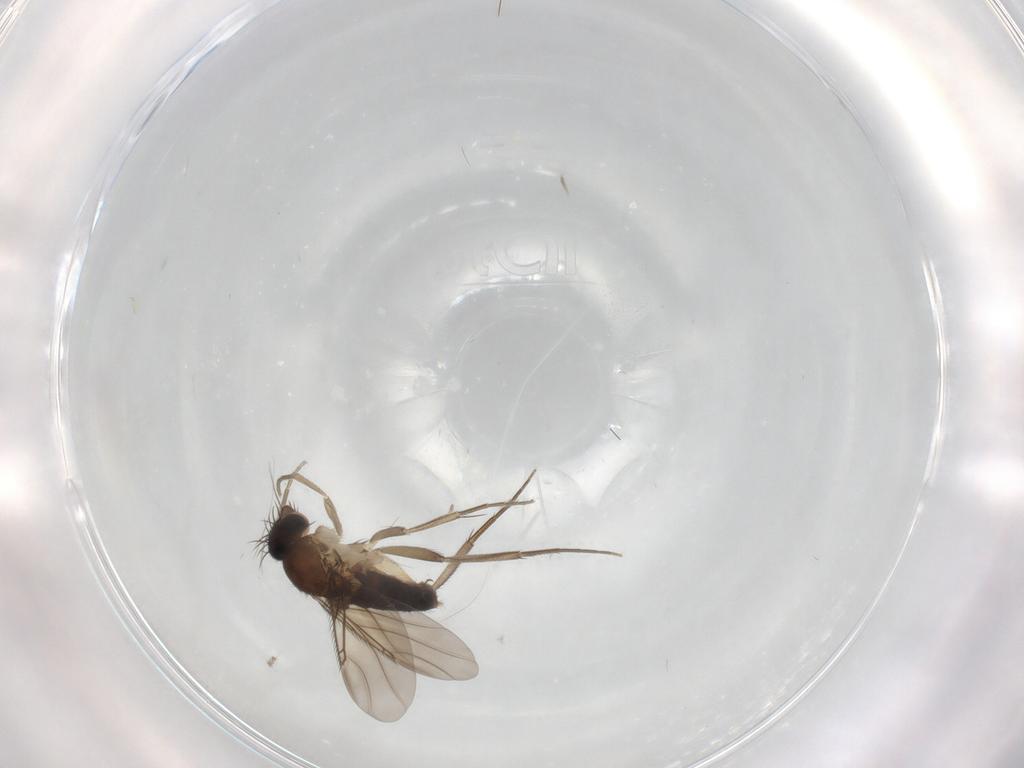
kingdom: Animalia
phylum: Arthropoda
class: Insecta
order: Diptera
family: Phoridae
